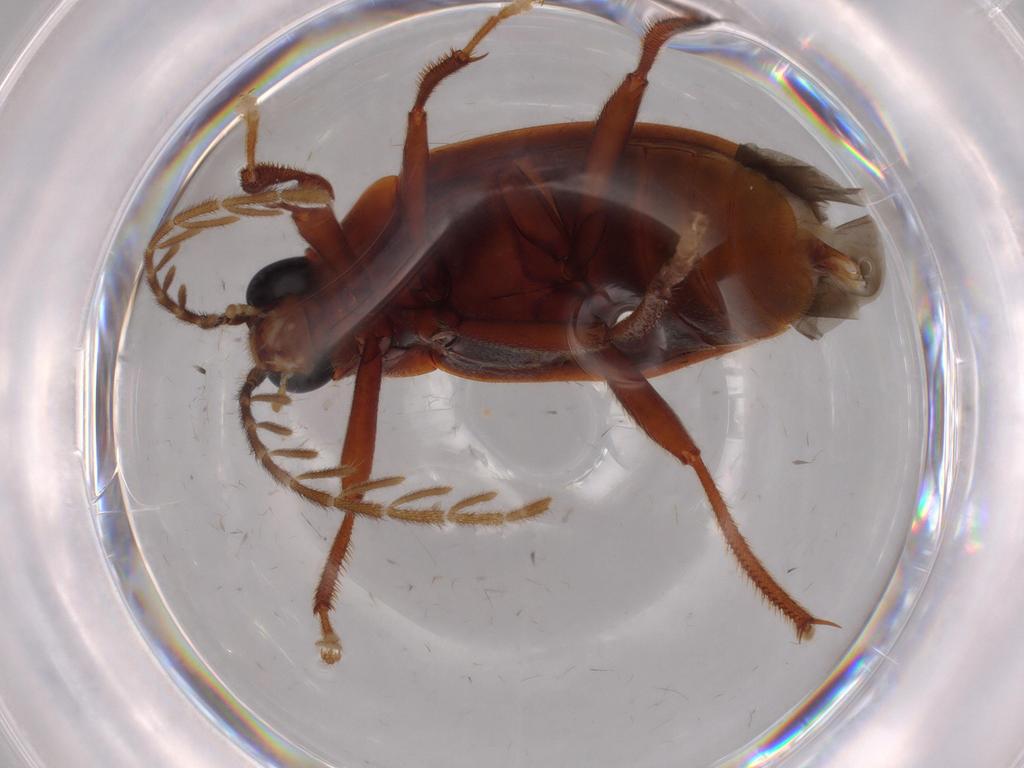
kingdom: Animalia
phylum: Arthropoda
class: Insecta
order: Coleoptera
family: Ptilodactylidae
